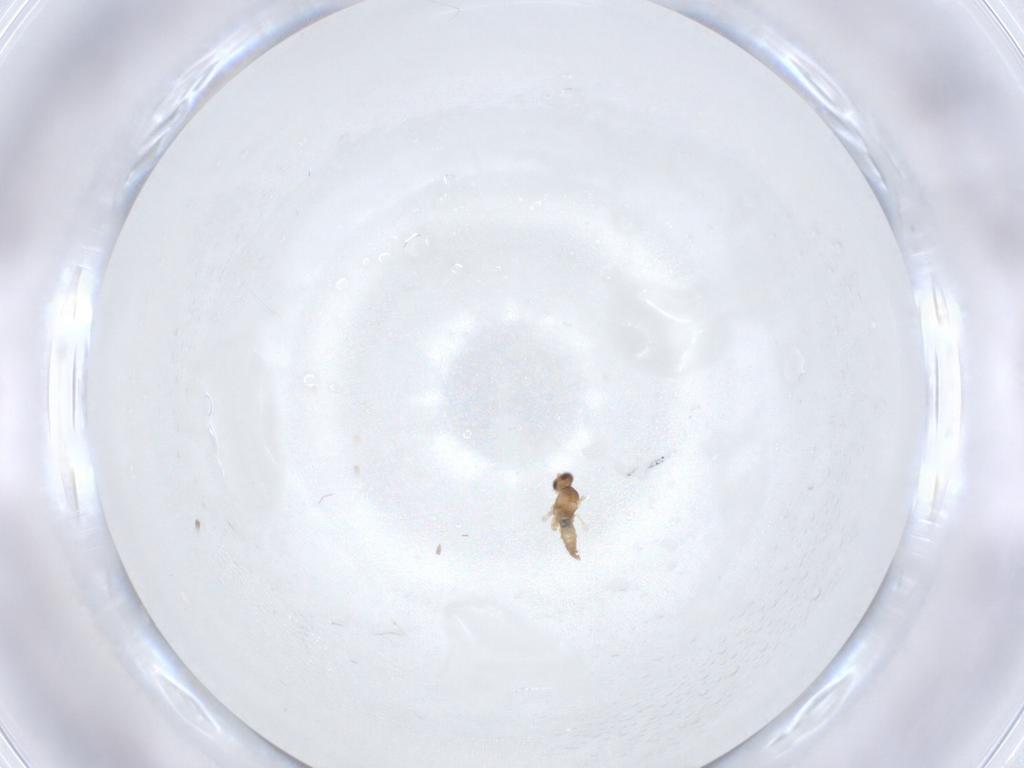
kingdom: Animalia
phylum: Arthropoda
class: Insecta
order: Diptera
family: Cecidomyiidae
